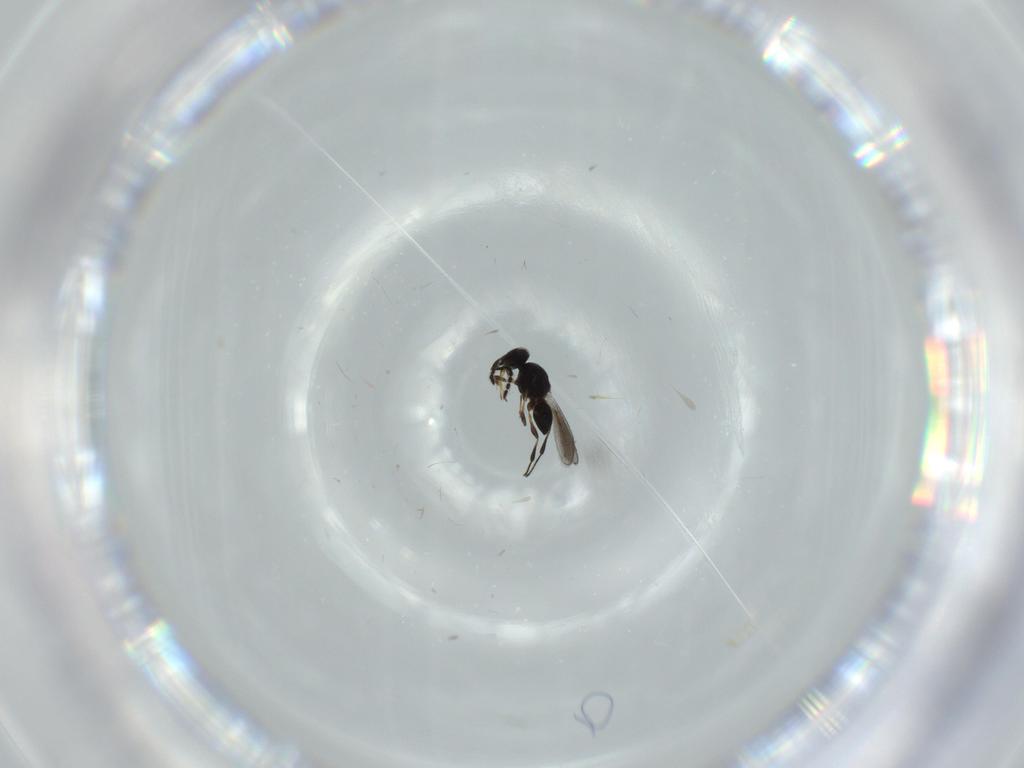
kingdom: Animalia
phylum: Arthropoda
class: Insecta
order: Hymenoptera
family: Platygastridae
